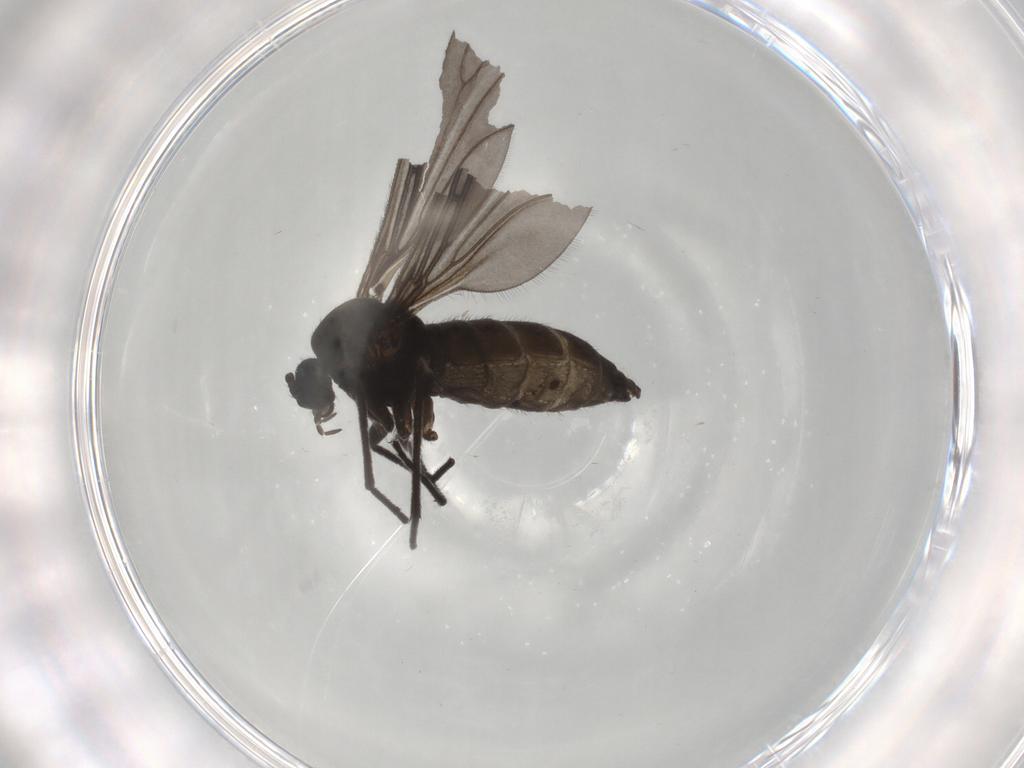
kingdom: Animalia
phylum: Arthropoda
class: Insecta
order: Diptera
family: Sciaridae
